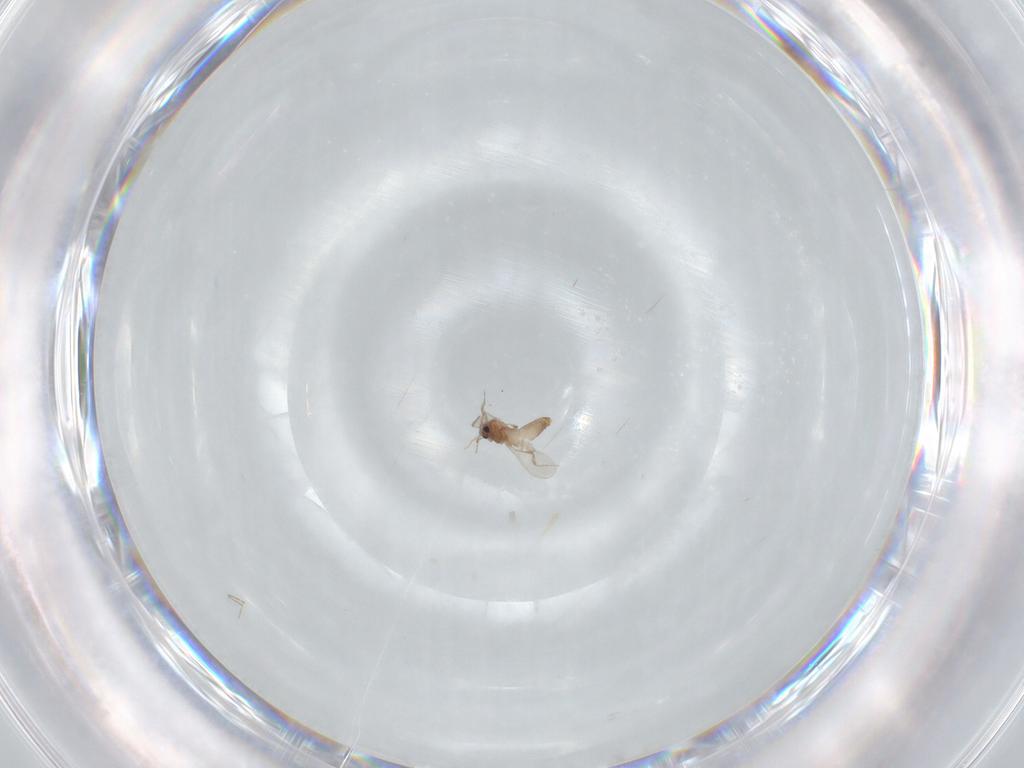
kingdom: Animalia
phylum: Arthropoda
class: Insecta
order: Diptera
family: Chironomidae
